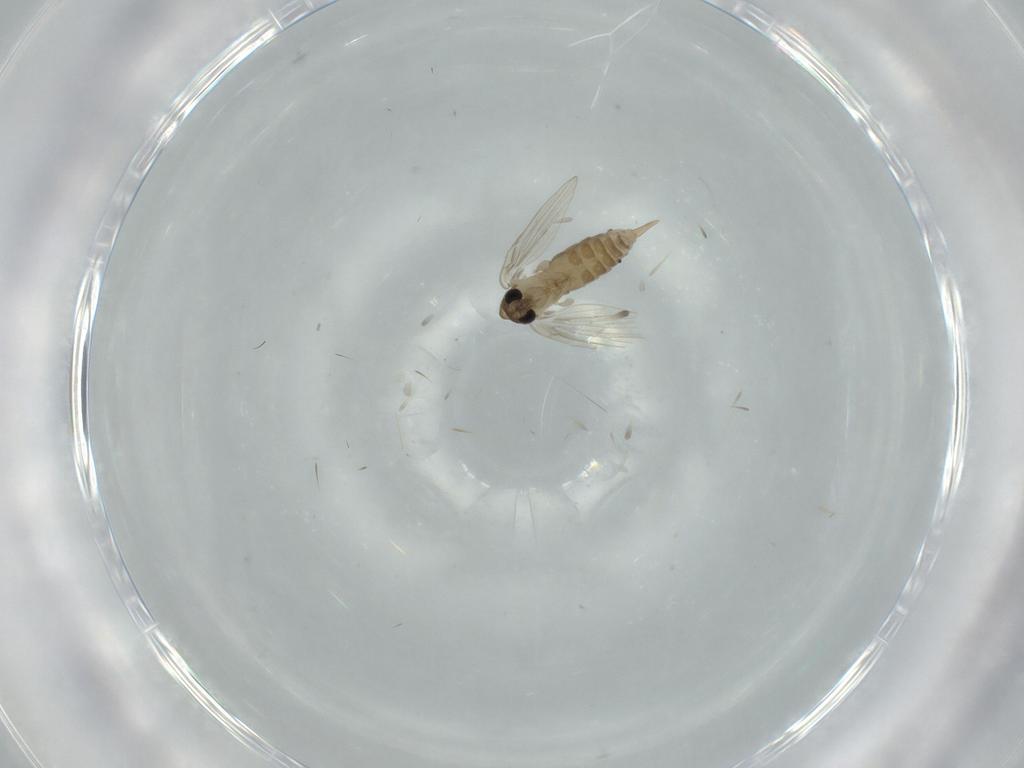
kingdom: Animalia
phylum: Arthropoda
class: Insecta
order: Diptera
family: Psychodidae
